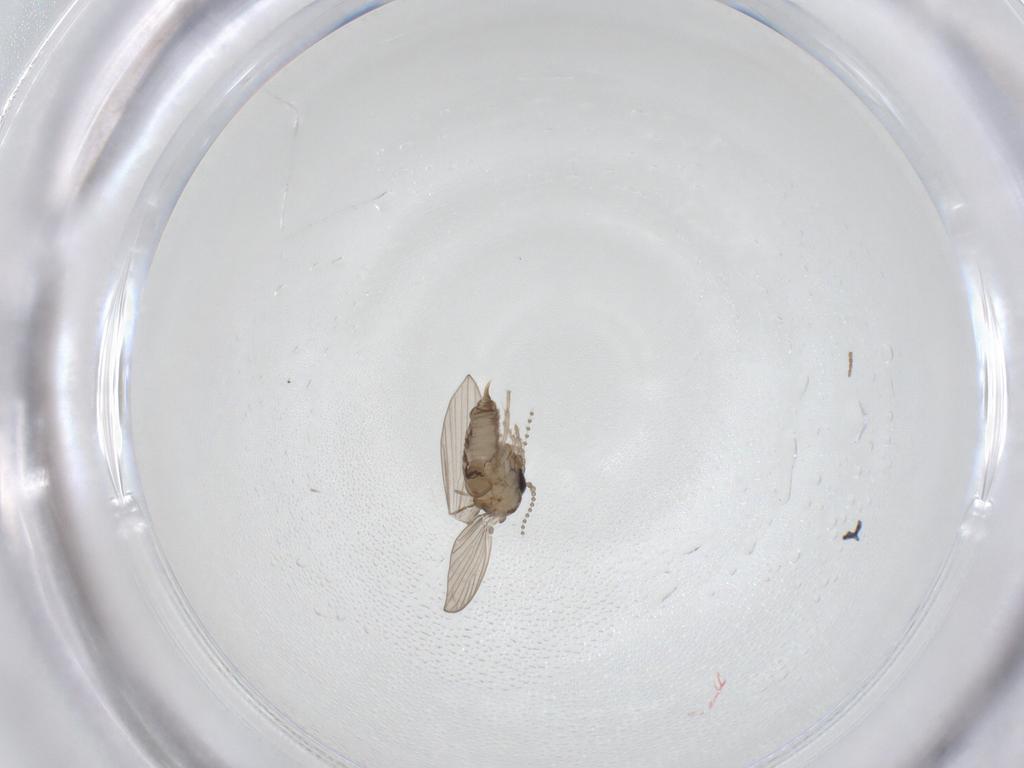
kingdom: Animalia
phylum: Arthropoda
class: Insecta
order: Diptera
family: Psychodidae
